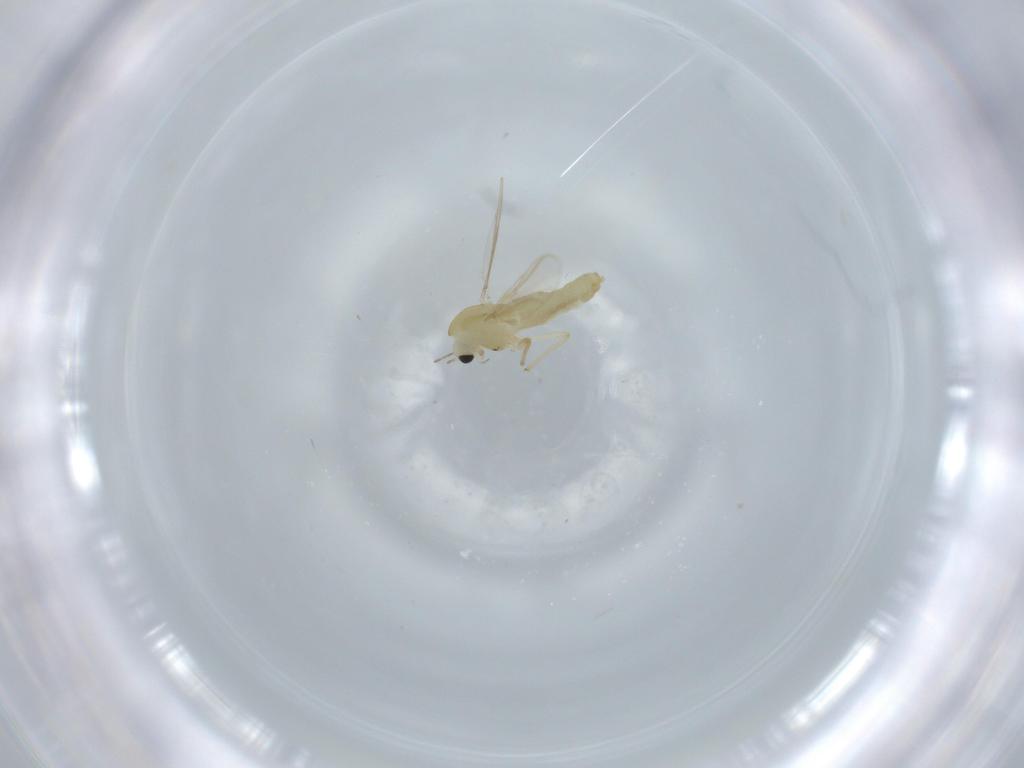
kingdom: Animalia
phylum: Arthropoda
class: Insecta
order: Diptera
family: Chironomidae
